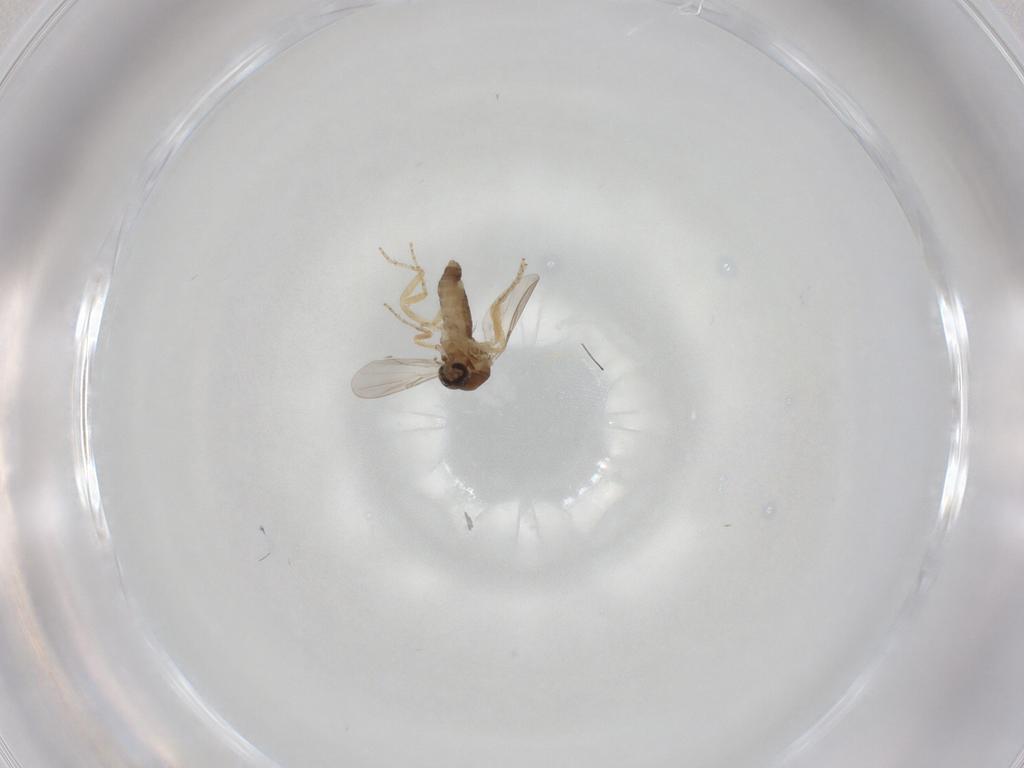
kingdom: Animalia
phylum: Arthropoda
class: Insecta
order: Diptera
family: Ceratopogonidae
